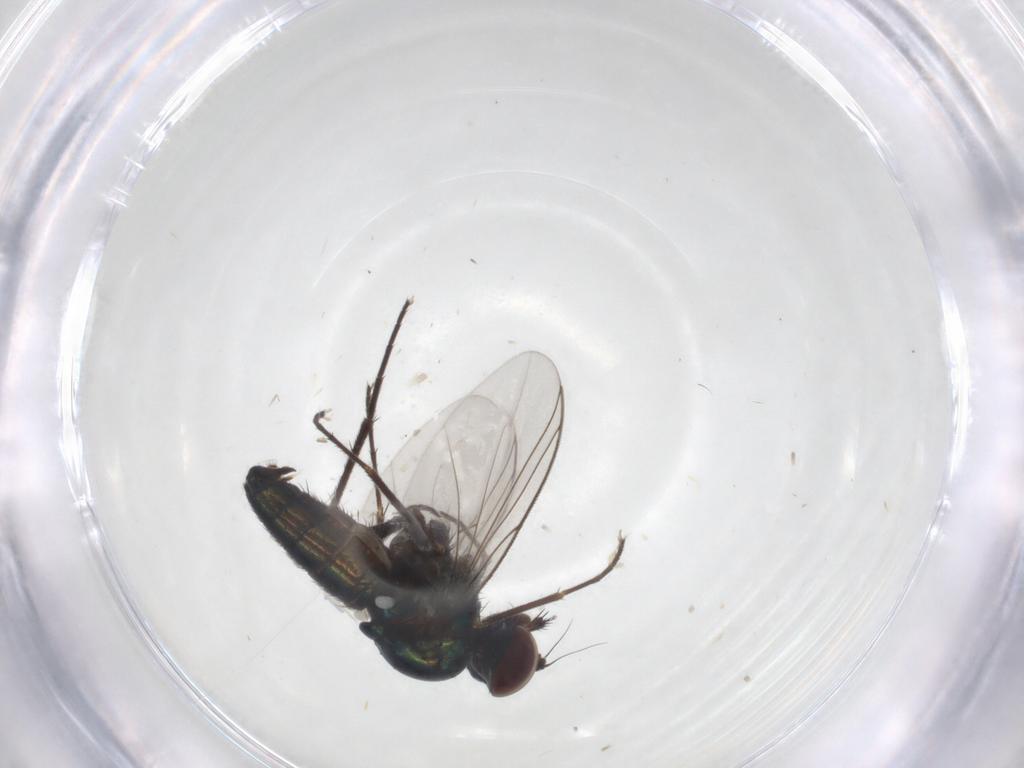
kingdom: Animalia
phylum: Arthropoda
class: Insecta
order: Diptera
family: Dolichopodidae
